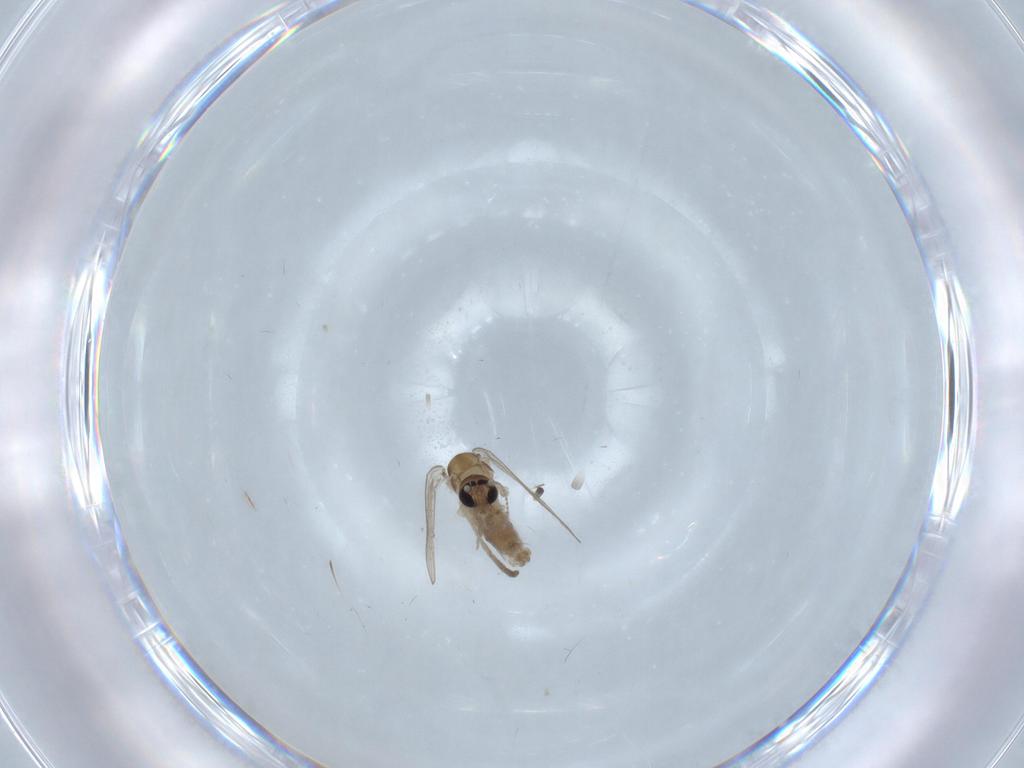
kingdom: Animalia
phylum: Arthropoda
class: Insecta
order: Diptera
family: Psychodidae
